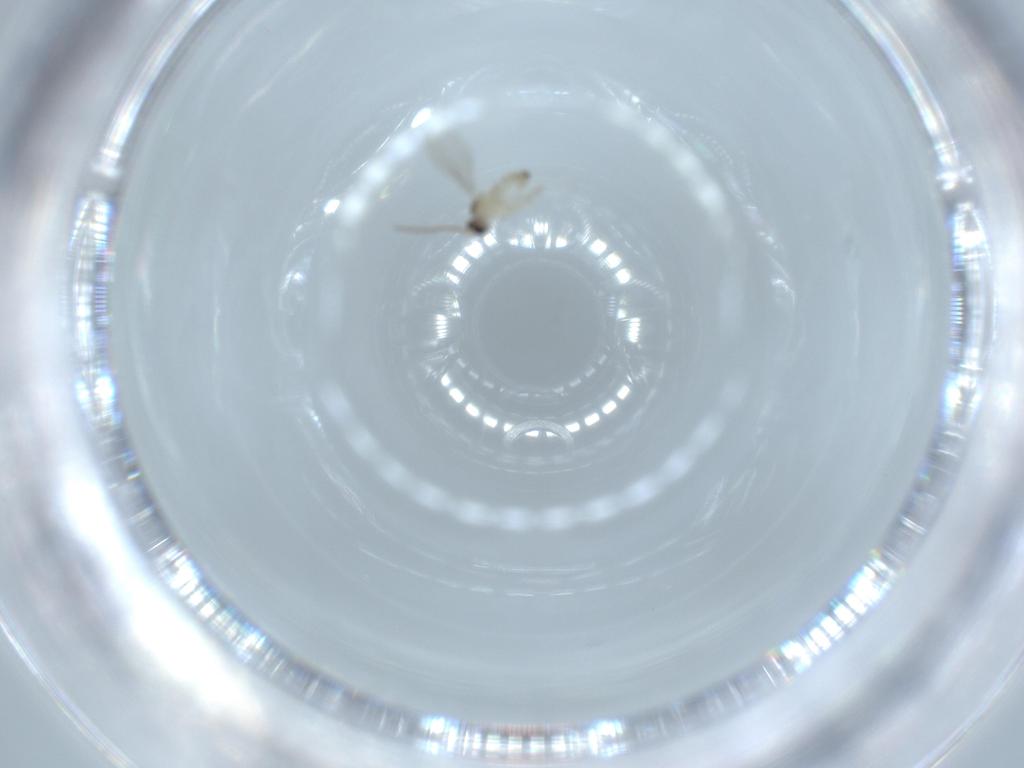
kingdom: Animalia
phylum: Arthropoda
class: Insecta
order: Diptera
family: Cecidomyiidae
